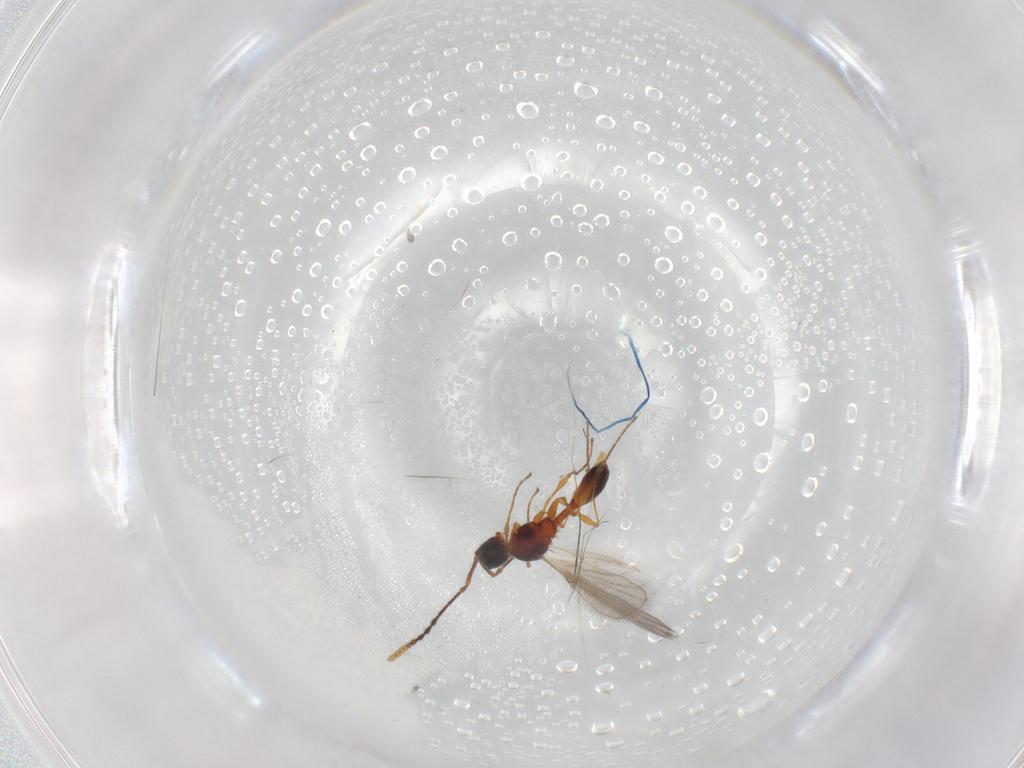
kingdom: Animalia
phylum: Arthropoda
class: Insecta
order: Hymenoptera
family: Diapriidae
